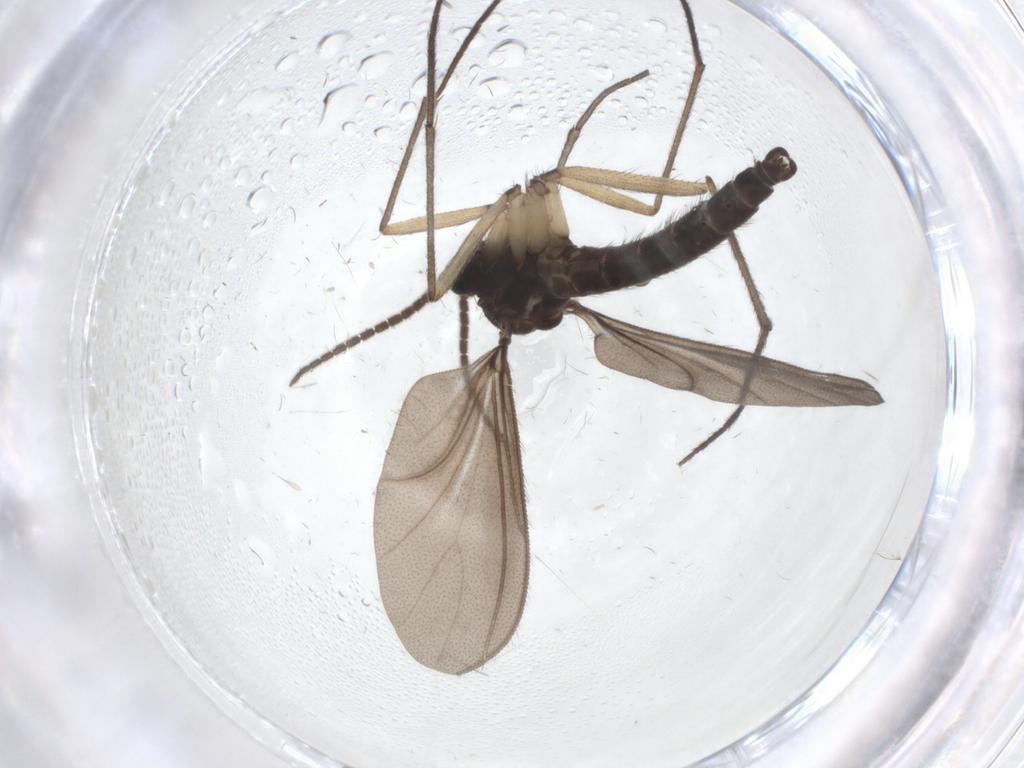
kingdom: Animalia
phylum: Arthropoda
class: Insecta
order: Diptera
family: Sciaridae
